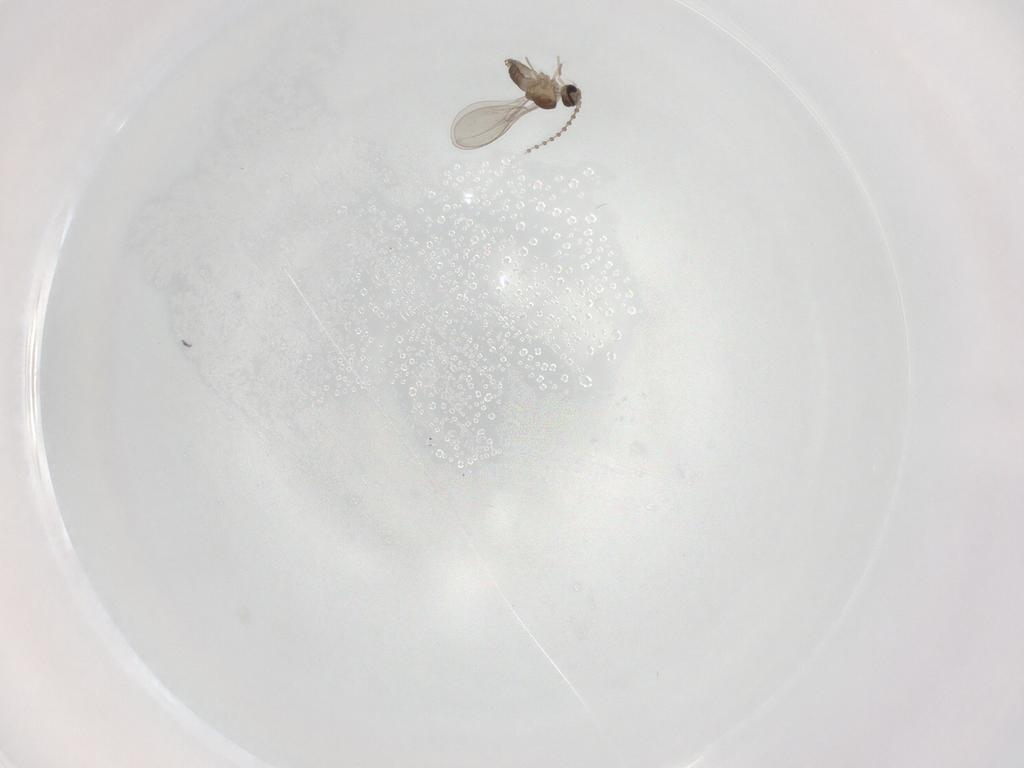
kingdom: Animalia
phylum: Arthropoda
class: Insecta
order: Diptera
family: Cecidomyiidae
